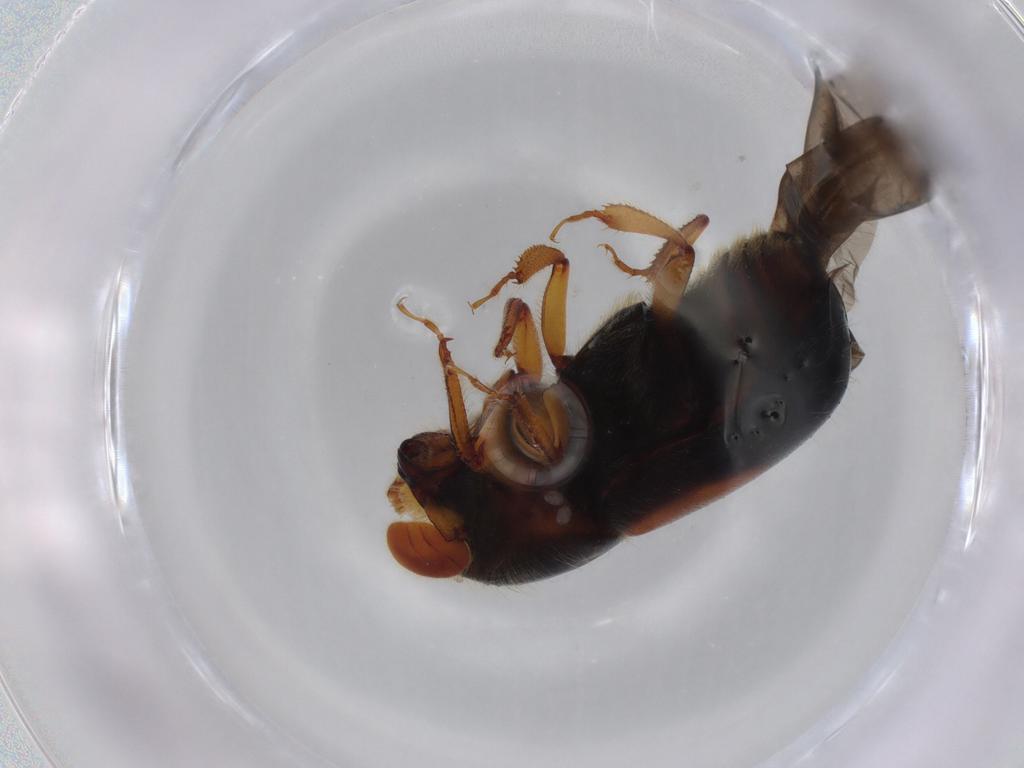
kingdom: Animalia
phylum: Arthropoda
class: Insecta
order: Coleoptera
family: Curculionidae
